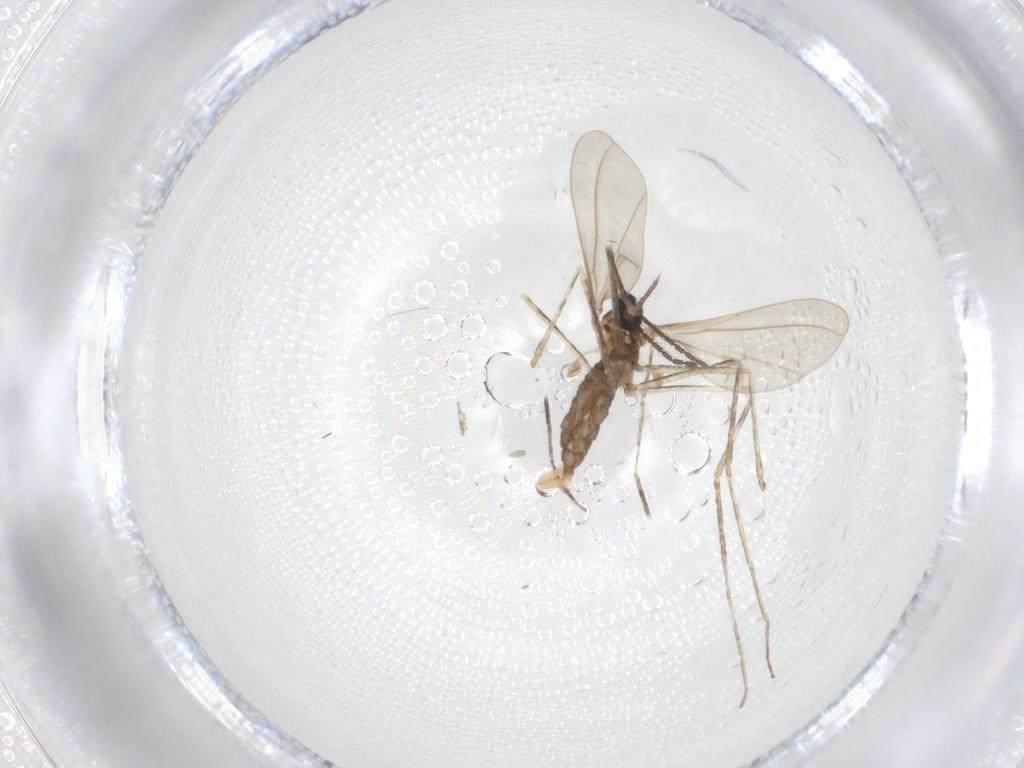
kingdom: Animalia
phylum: Arthropoda
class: Insecta
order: Diptera
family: Cecidomyiidae
